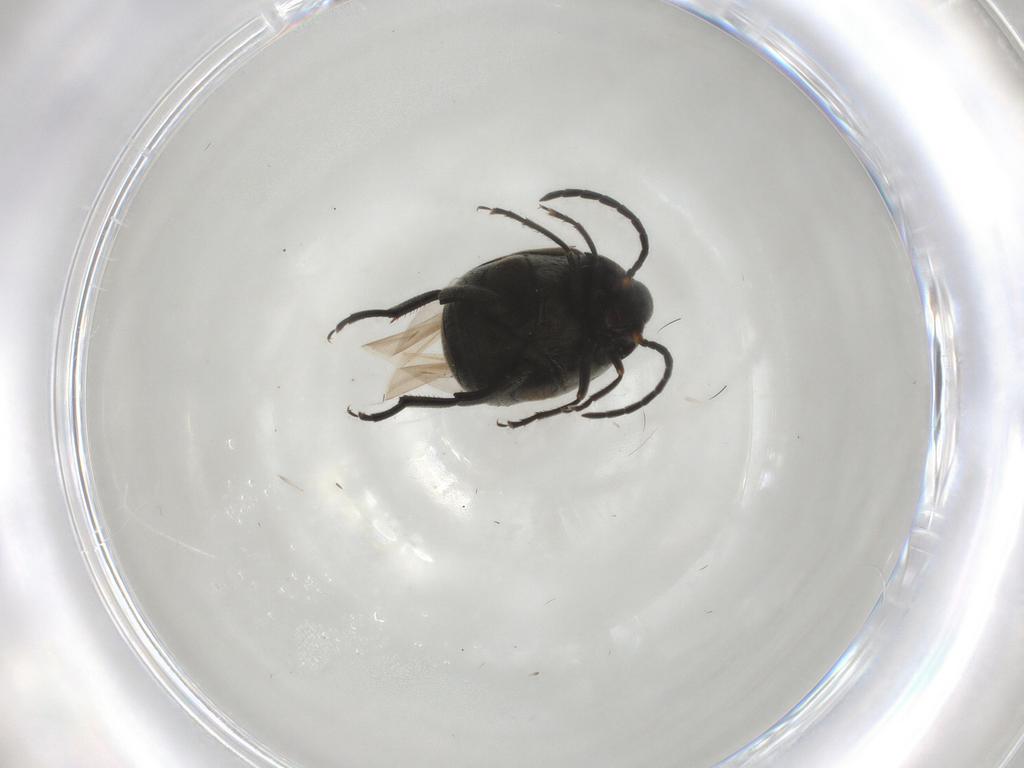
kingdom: Animalia
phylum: Arthropoda
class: Insecta
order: Coleoptera
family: Chrysomelidae
